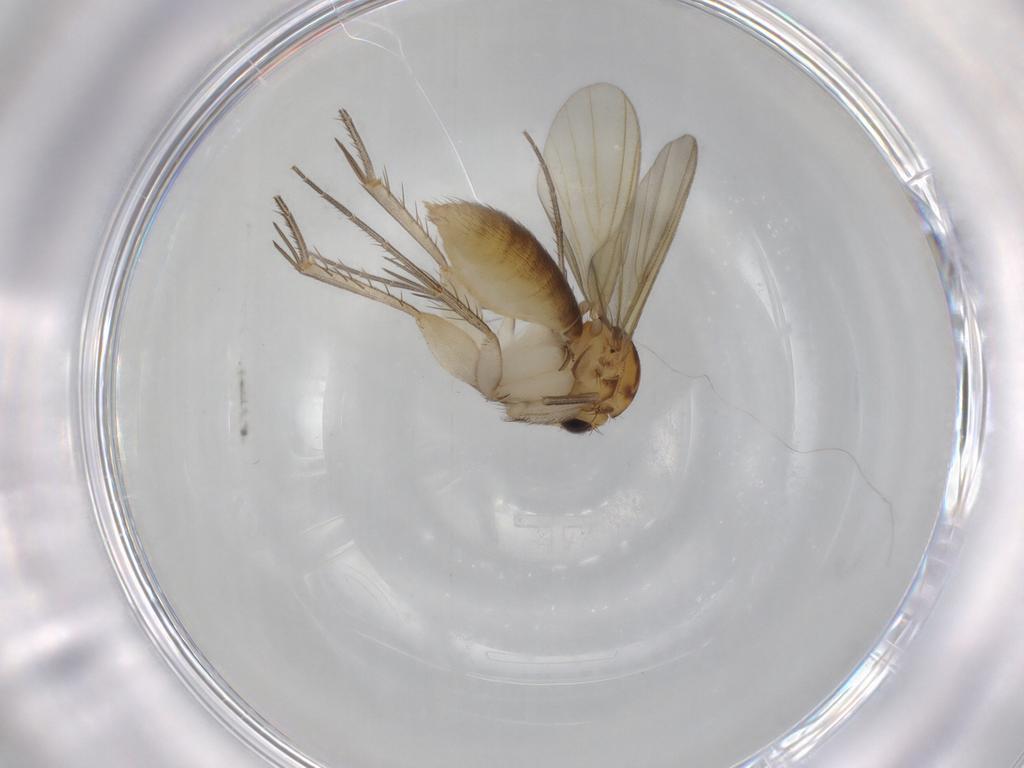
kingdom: Animalia
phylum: Arthropoda
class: Insecta
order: Diptera
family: Mycetophilidae
